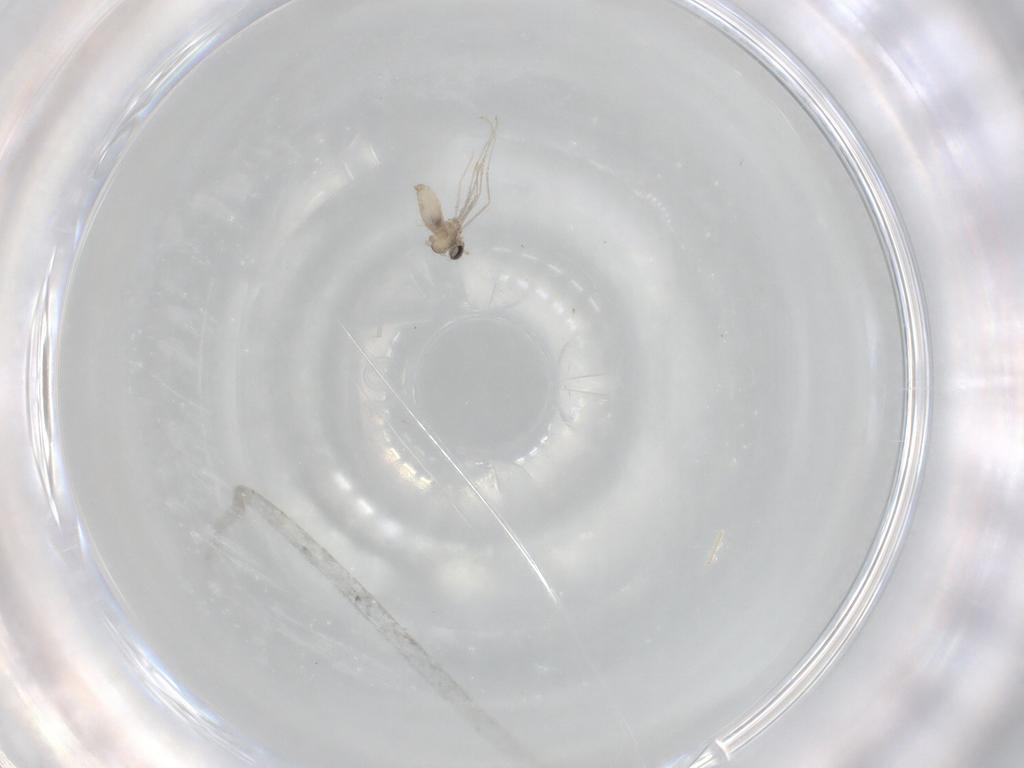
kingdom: Animalia
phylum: Arthropoda
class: Insecta
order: Diptera
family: Cecidomyiidae
